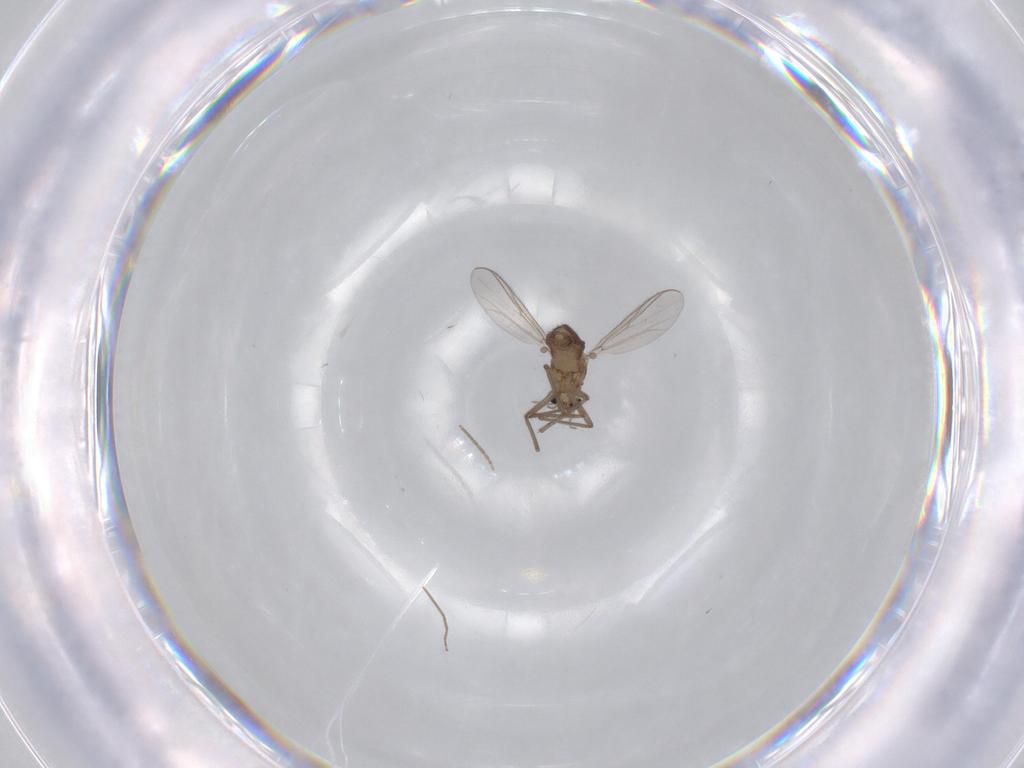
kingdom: Animalia
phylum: Arthropoda
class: Insecta
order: Diptera
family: Chironomidae
